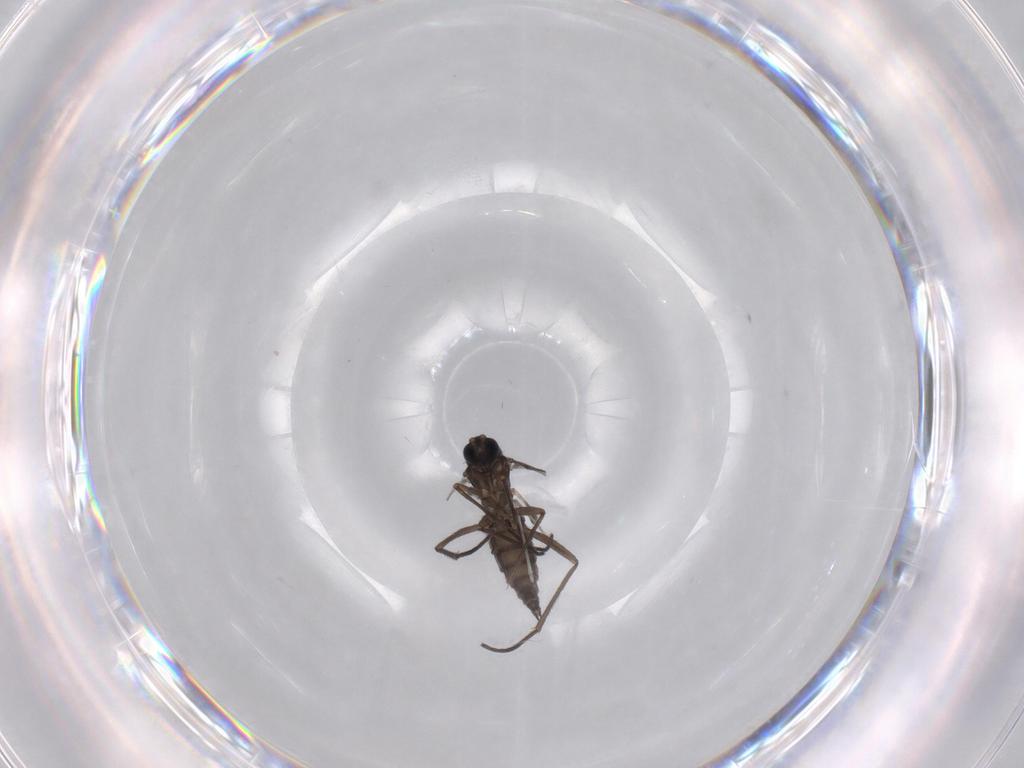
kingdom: Animalia
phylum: Arthropoda
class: Insecta
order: Diptera
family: Sciaridae
